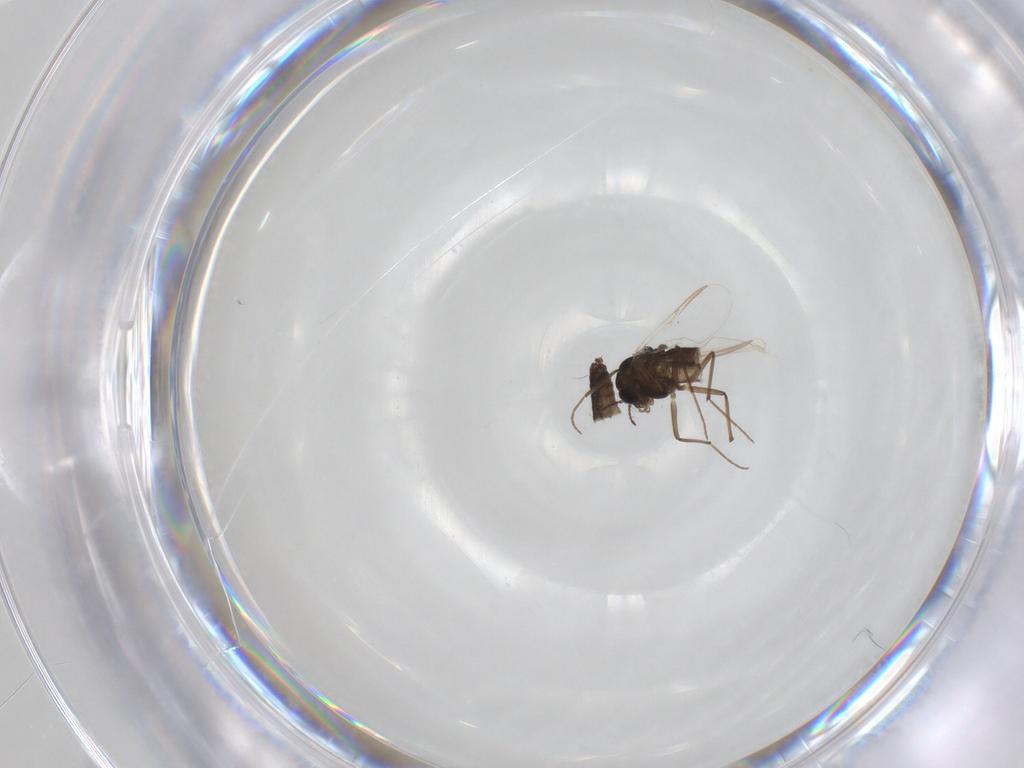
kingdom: Animalia
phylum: Arthropoda
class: Insecta
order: Diptera
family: Chironomidae
